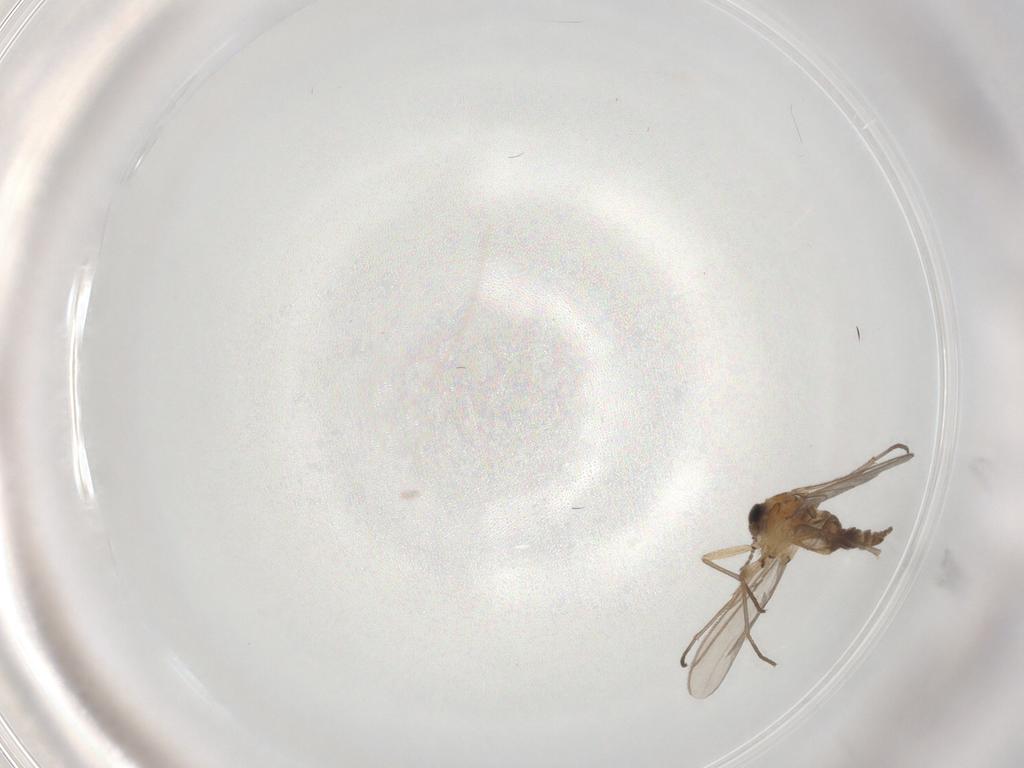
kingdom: Animalia
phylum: Arthropoda
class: Insecta
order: Diptera
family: Sciaridae
